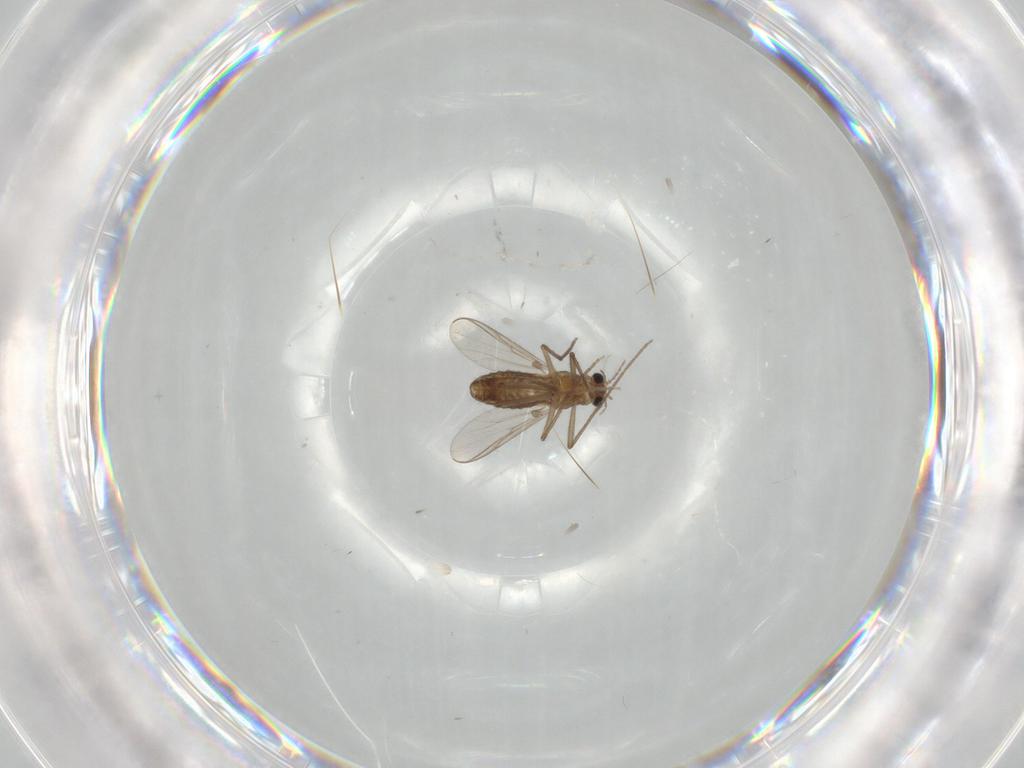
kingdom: Animalia
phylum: Arthropoda
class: Insecta
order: Diptera
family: Chironomidae
